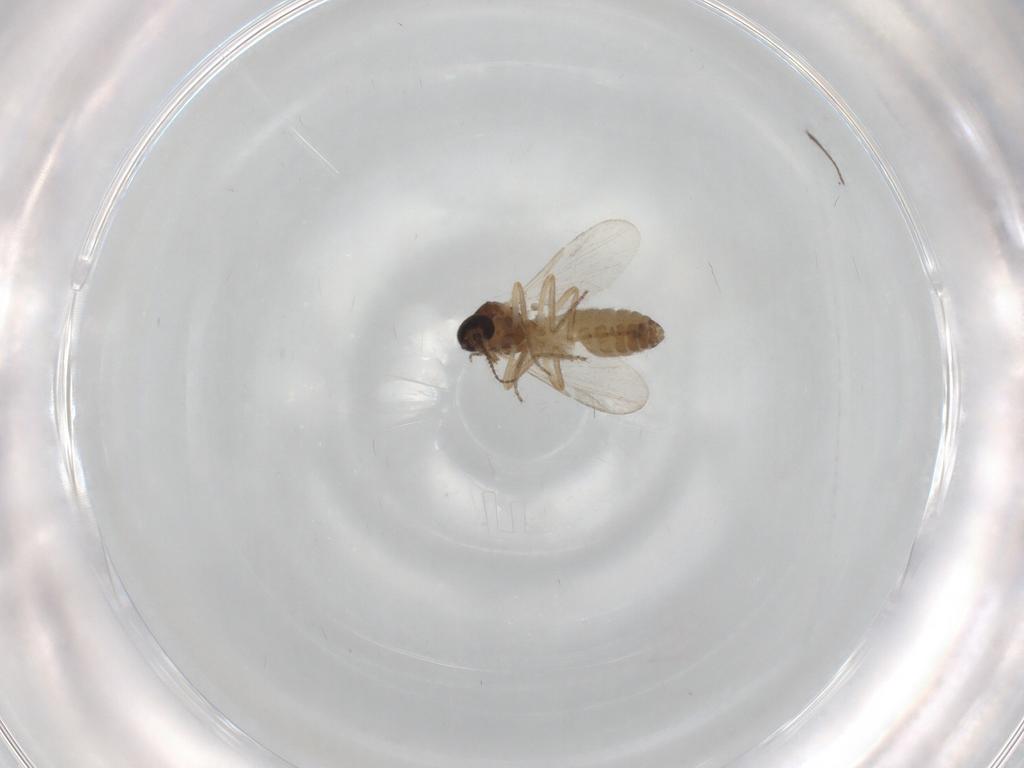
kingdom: Animalia
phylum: Arthropoda
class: Insecta
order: Diptera
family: Ceratopogonidae
